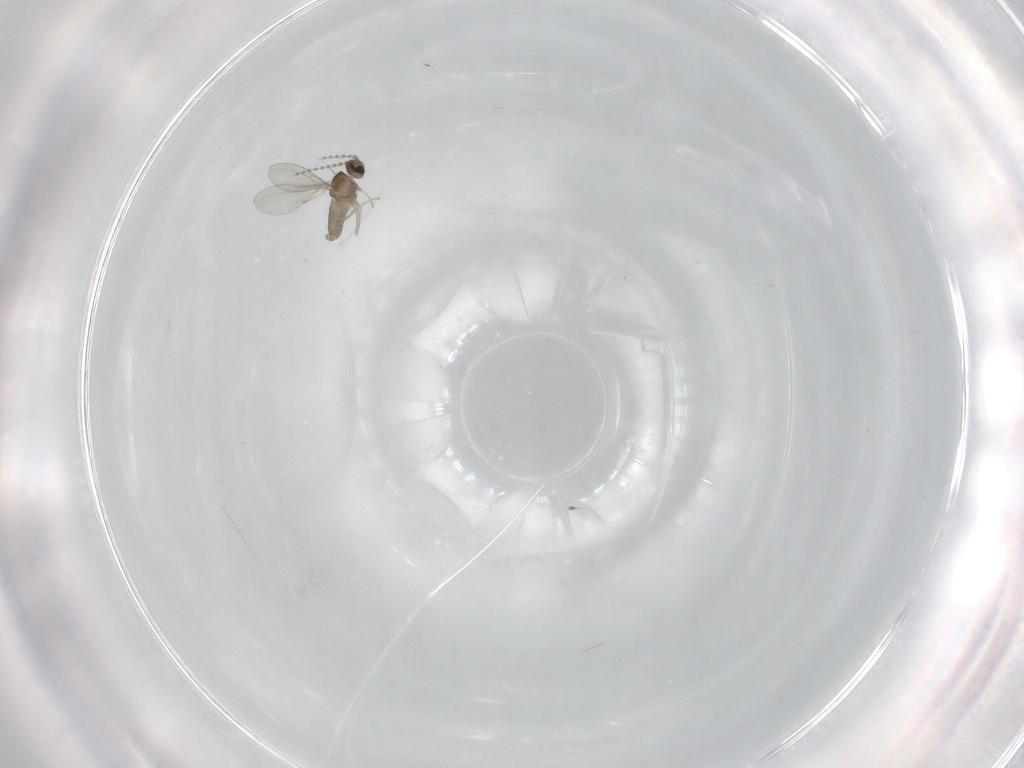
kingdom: Animalia
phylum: Arthropoda
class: Insecta
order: Diptera
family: Cecidomyiidae
